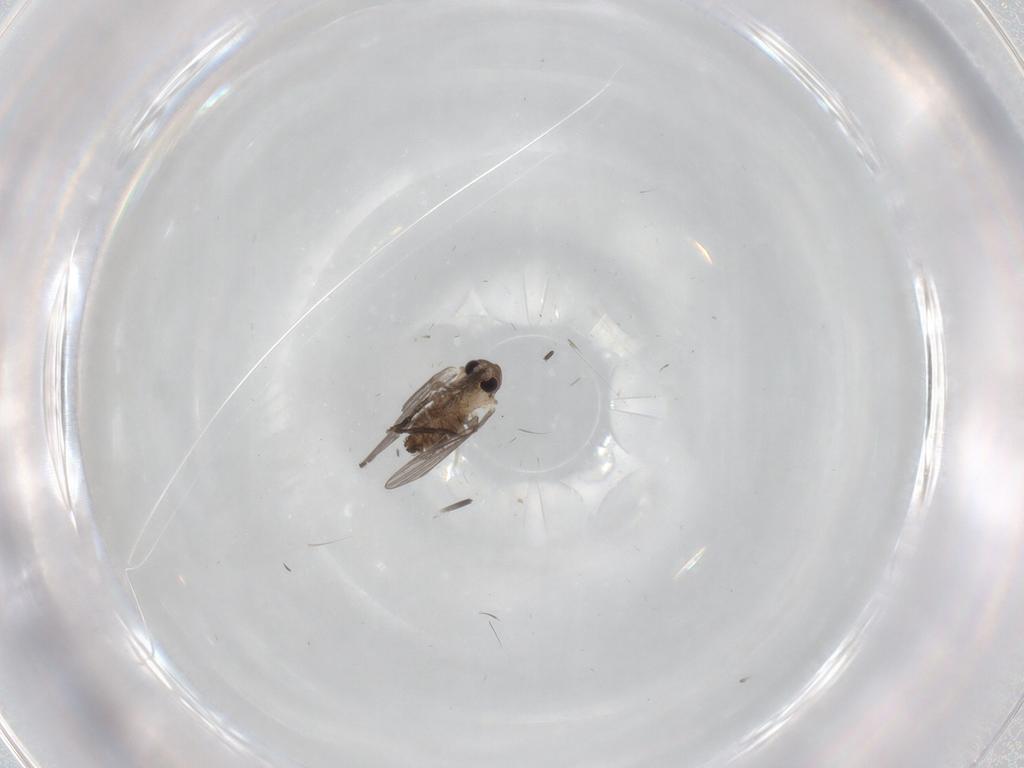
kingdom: Animalia
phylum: Arthropoda
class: Insecta
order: Diptera
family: Sciaridae
